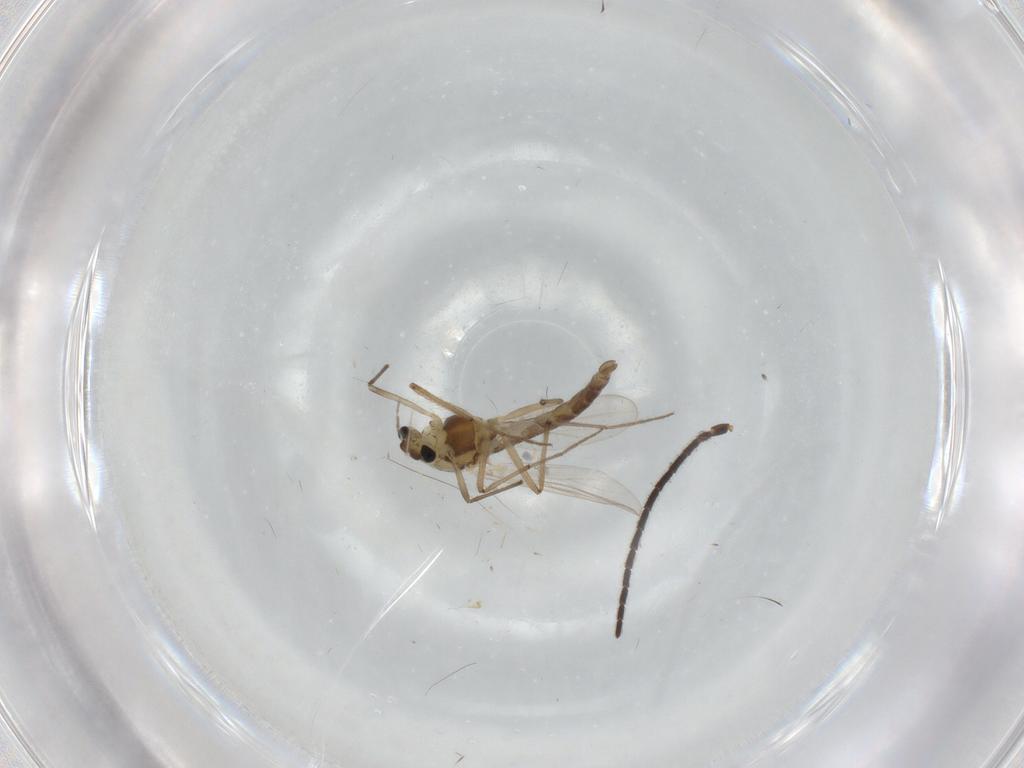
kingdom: Animalia
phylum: Arthropoda
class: Insecta
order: Diptera
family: Chironomidae
